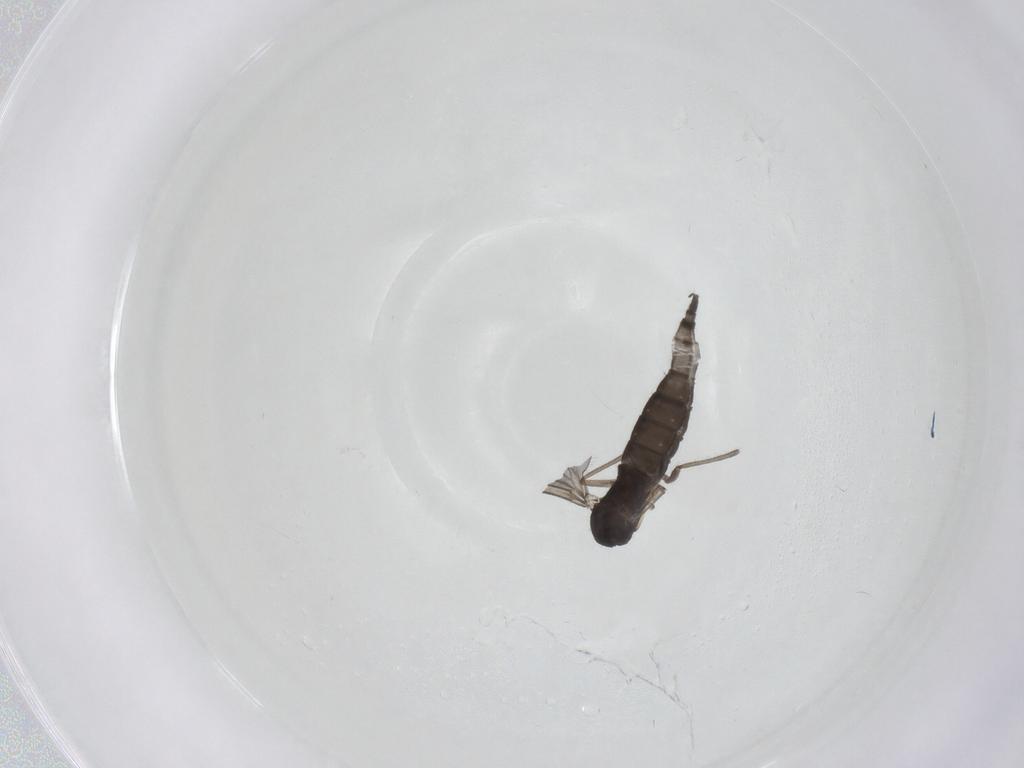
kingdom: Animalia
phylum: Arthropoda
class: Insecta
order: Diptera
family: Sciaridae
